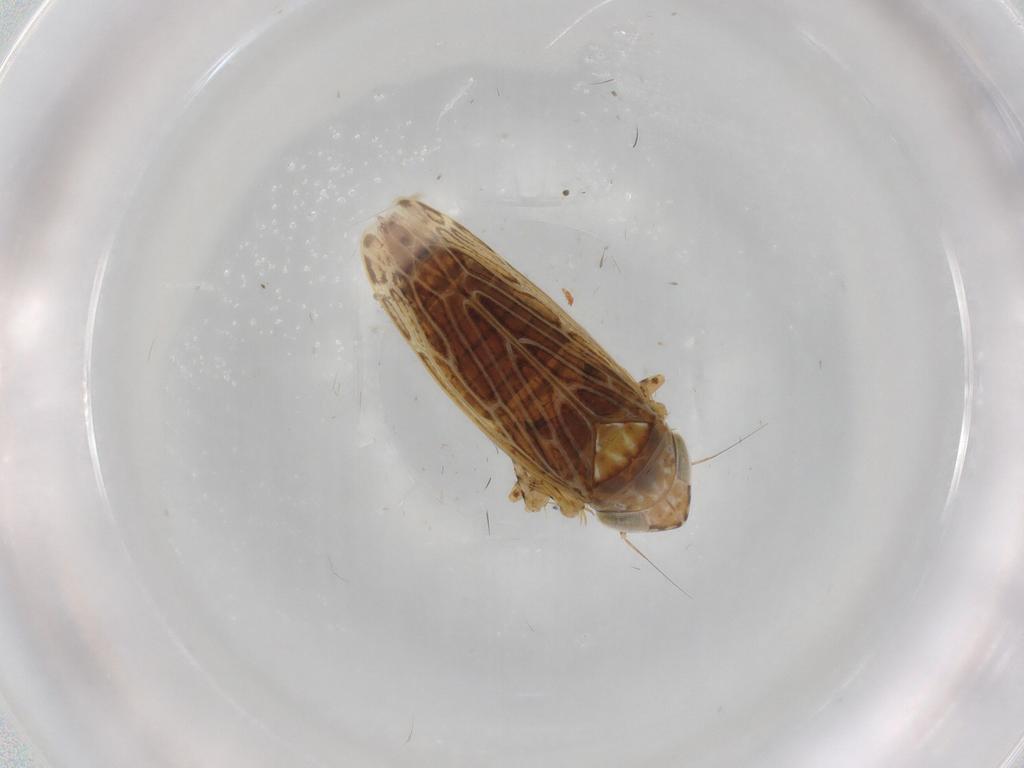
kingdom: Animalia
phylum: Arthropoda
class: Insecta
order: Hemiptera
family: Cicadellidae
